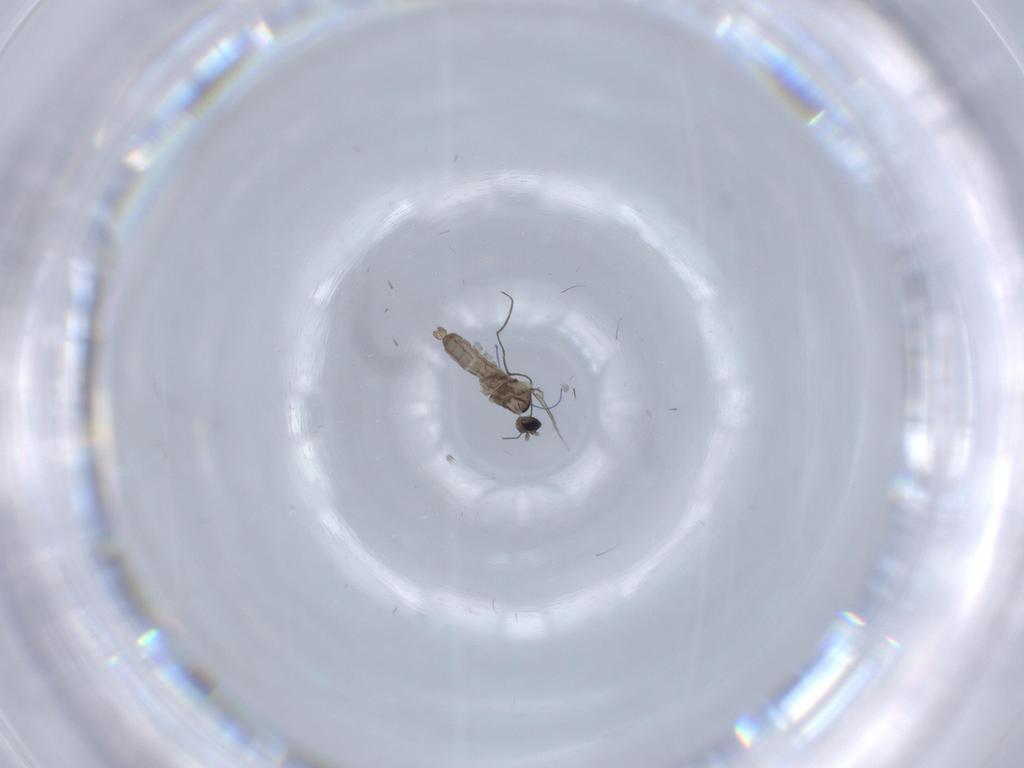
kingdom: Animalia
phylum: Arthropoda
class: Insecta
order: Diptera
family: Cecidomyiidae
